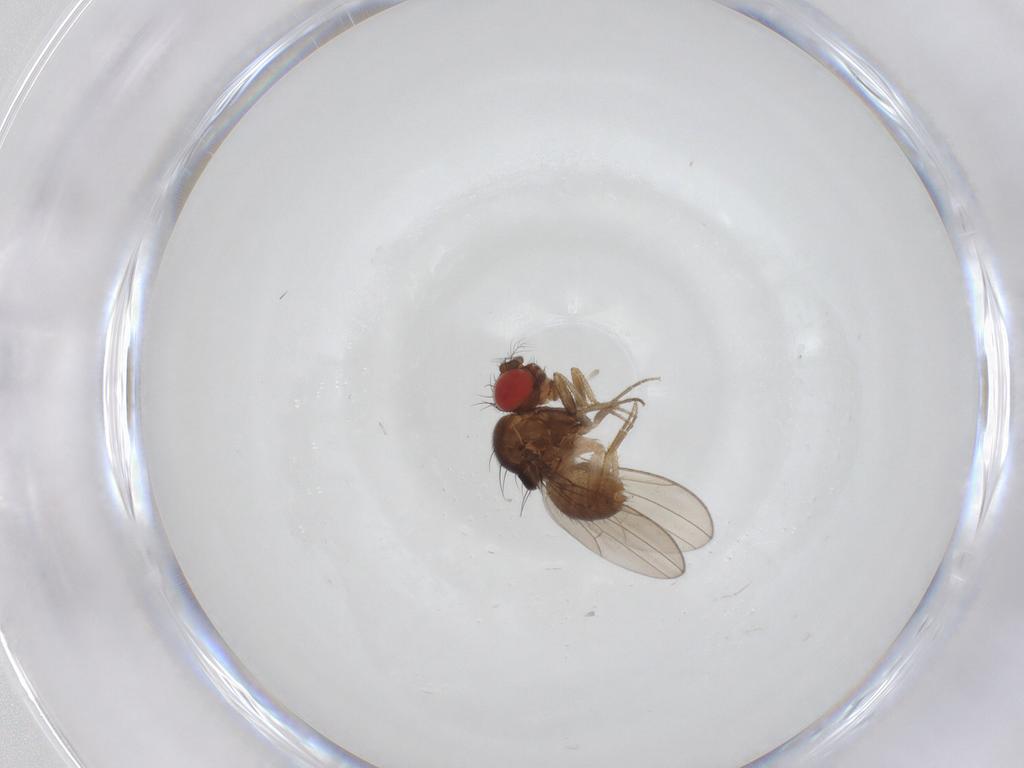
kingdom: Animalia
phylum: Arthropoda
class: Insecta
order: Diptera
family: Drosophilidae
